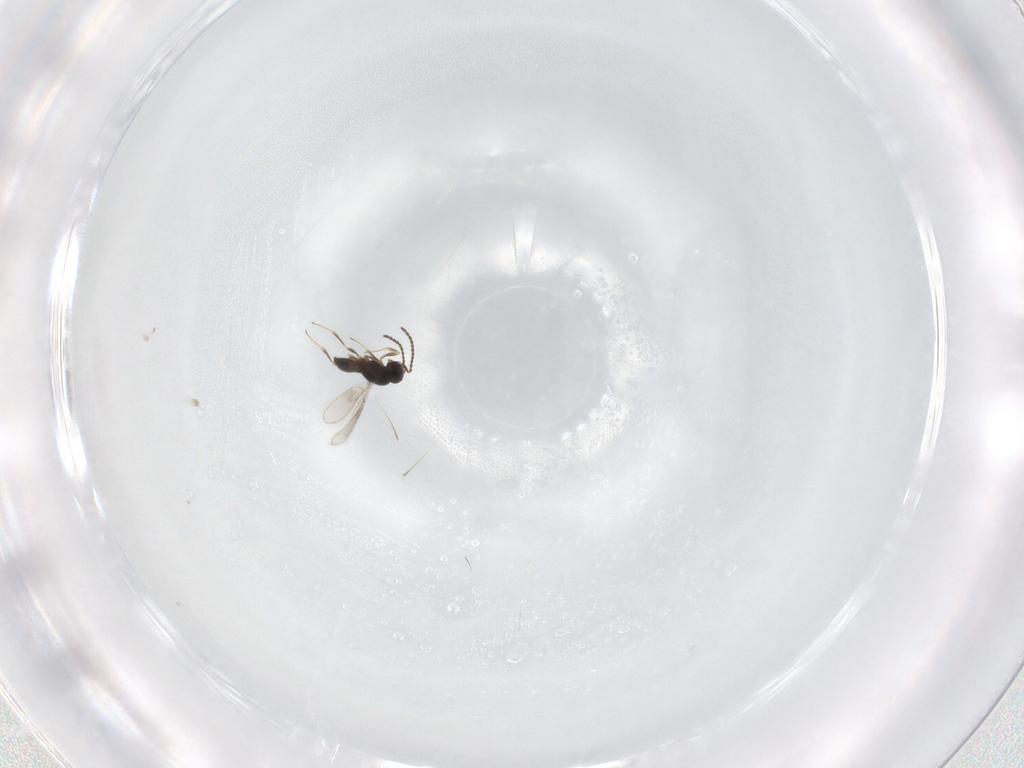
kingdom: Animalia
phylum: Arthropoda
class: Insecta
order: Hymenoptera
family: Scelionidae
